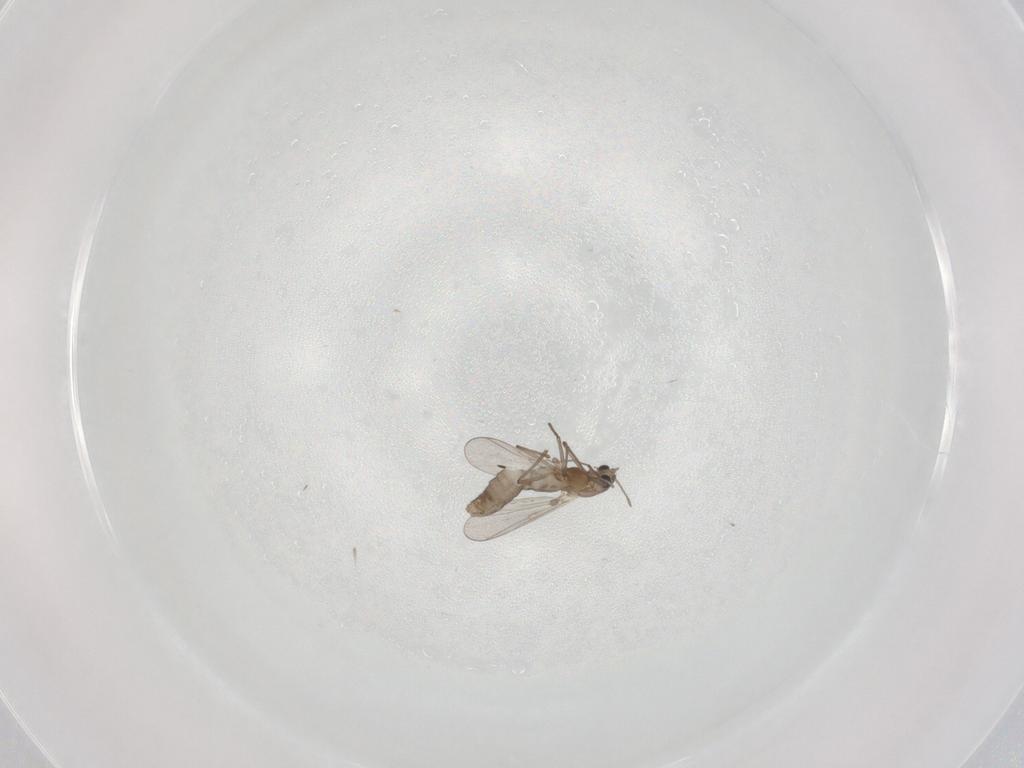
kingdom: Animalia
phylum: Arthropoda
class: Insecta
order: Diptera
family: Chironomidae
